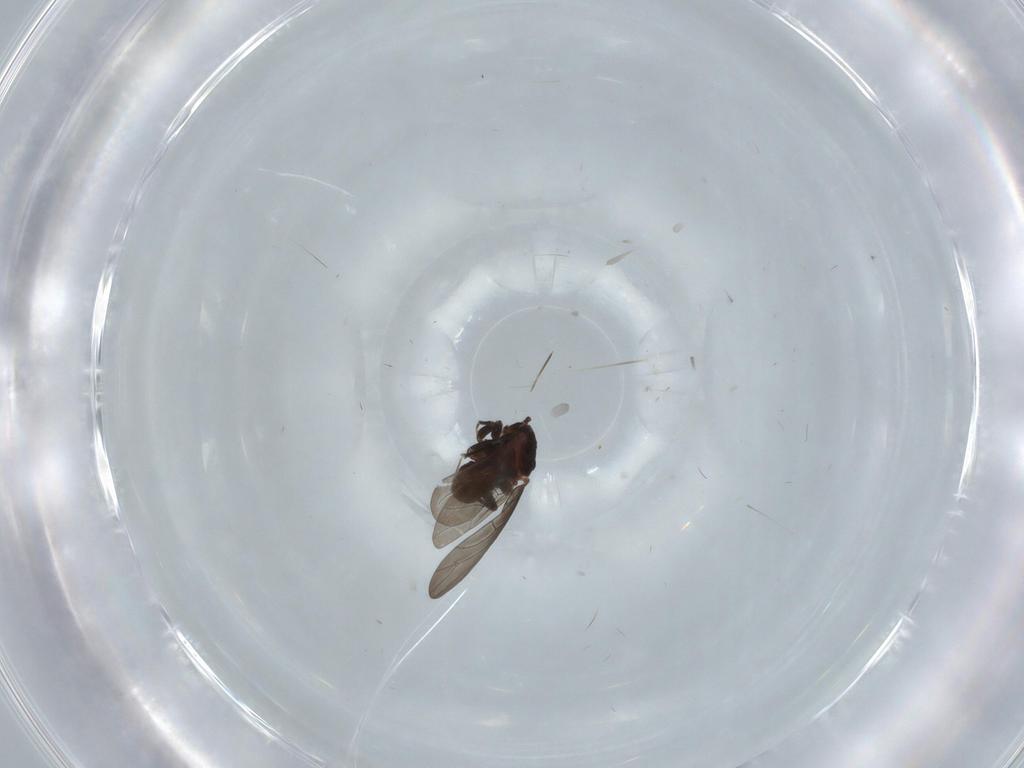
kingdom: Animalia
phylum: Arthropoda
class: Insecta
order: Psocodea
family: Lepidopsocidae
